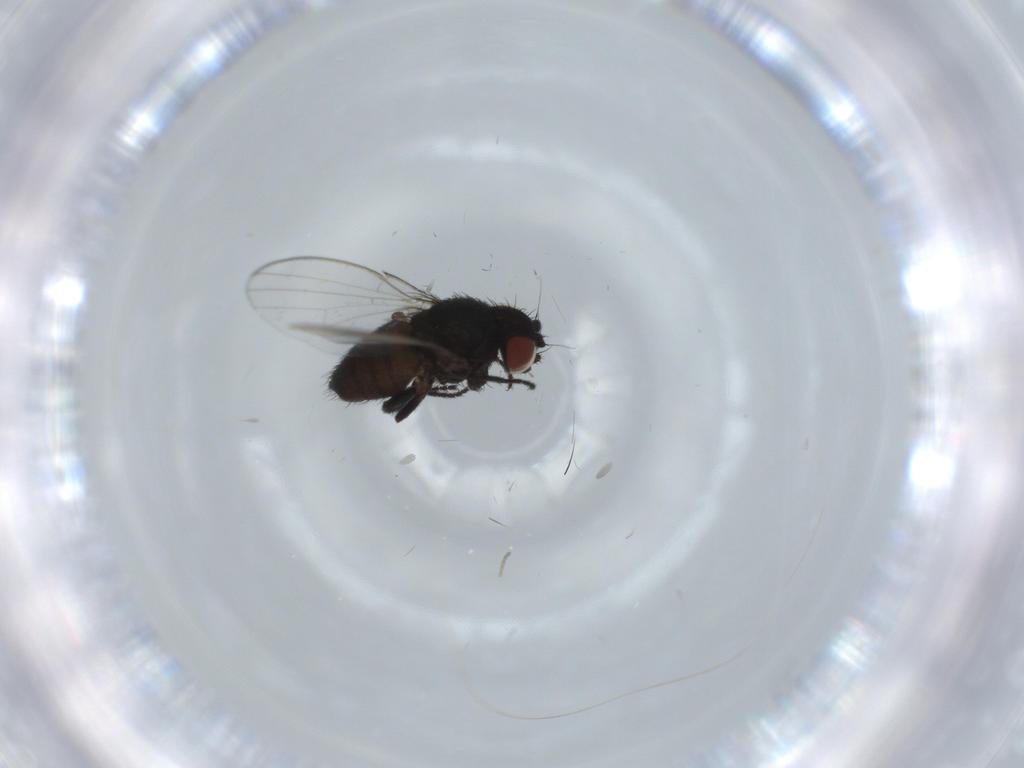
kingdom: Animalia
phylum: Arthropoda
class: Insecta
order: Diptera
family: Milichiidae
